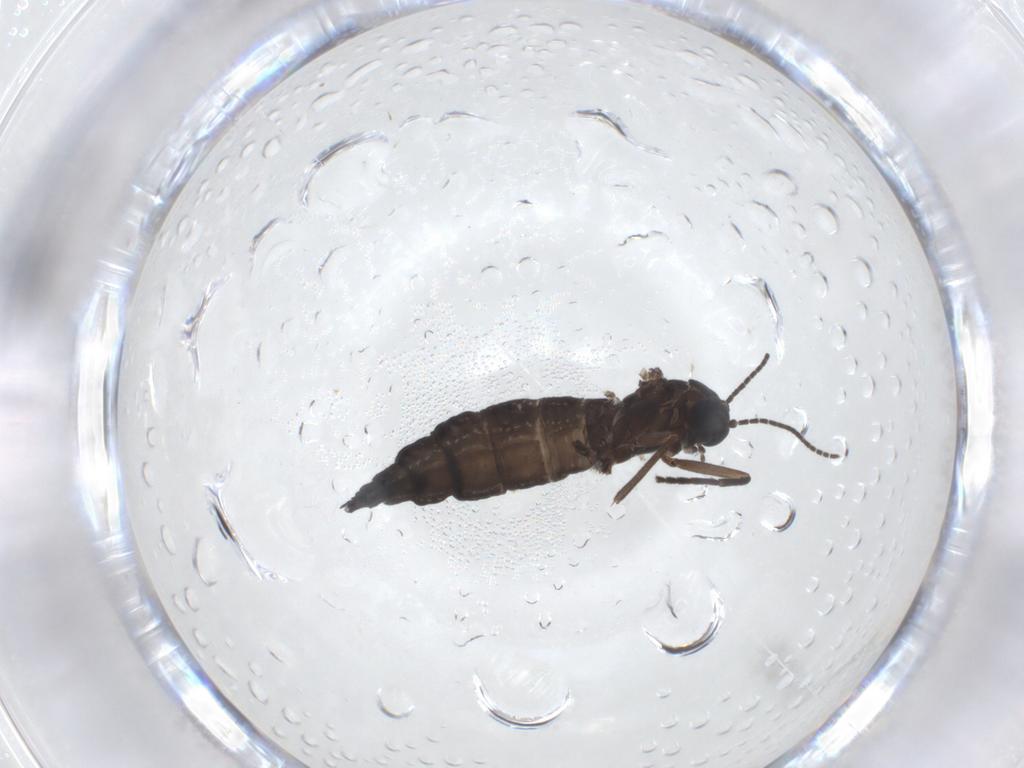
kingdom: Animalia
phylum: Arthropoda
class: Insecta
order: Diptera
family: Sciaridae
